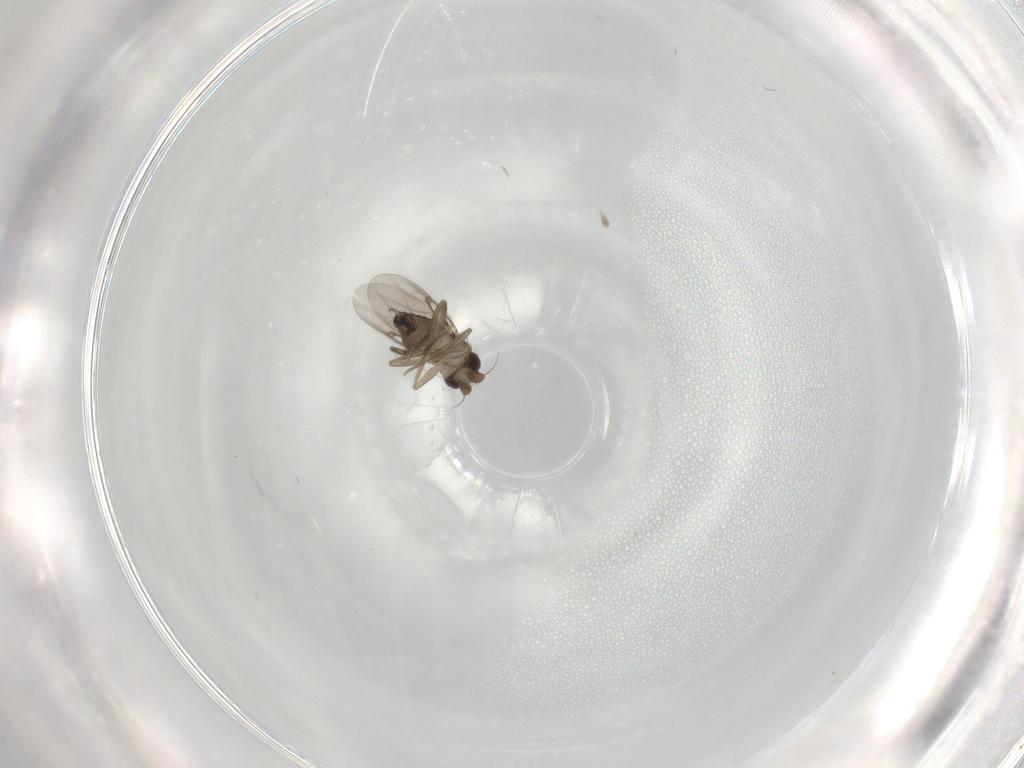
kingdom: Animalia
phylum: Arthropoda
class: Insecta
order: Diptera
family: Phoridae
